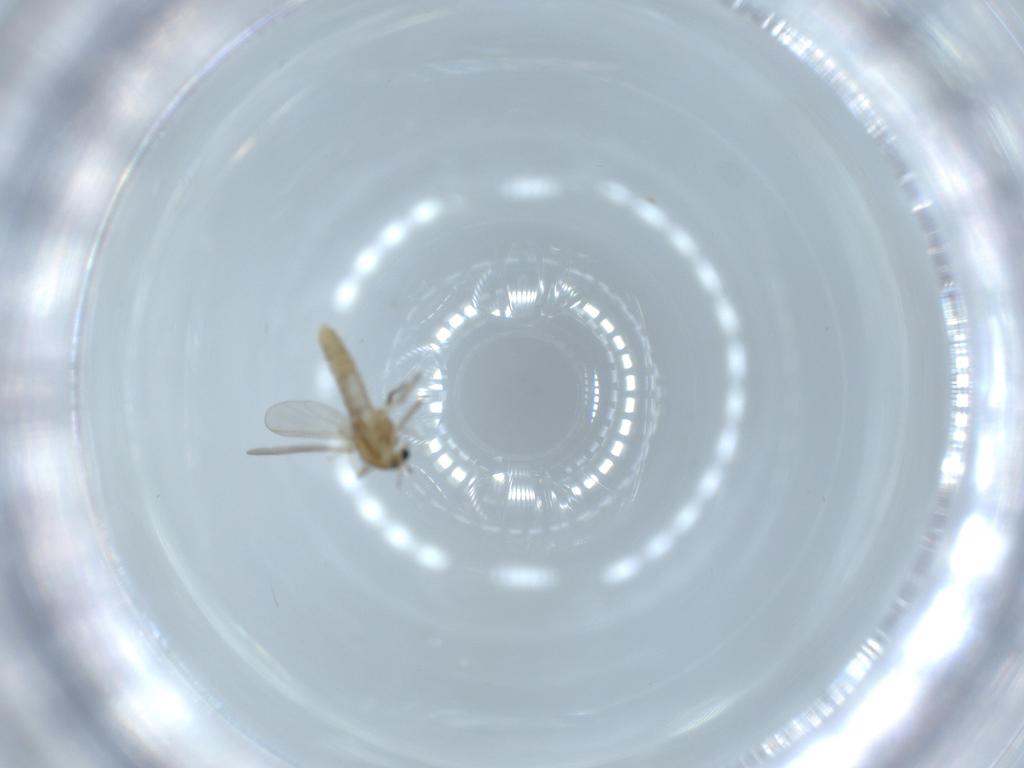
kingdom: Animalia
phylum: Arthropoda
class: Insecta
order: Diptera
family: Chironomidae
